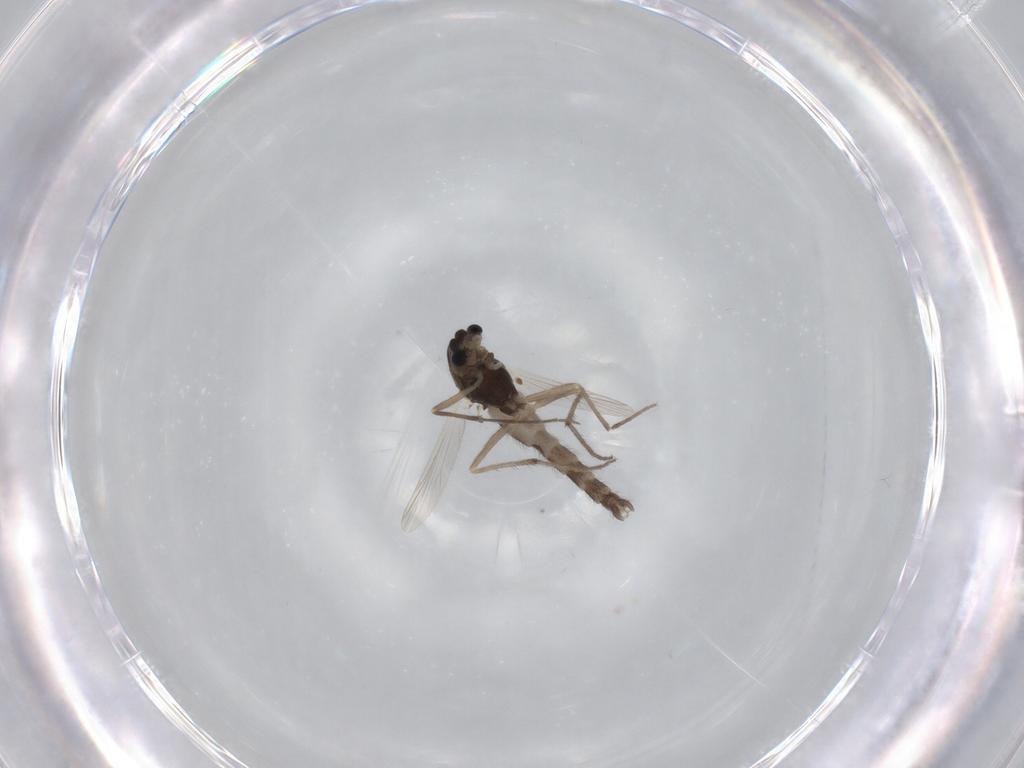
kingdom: Animalia
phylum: Arthropoda
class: Insecta
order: Diptera
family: Chironomidae
